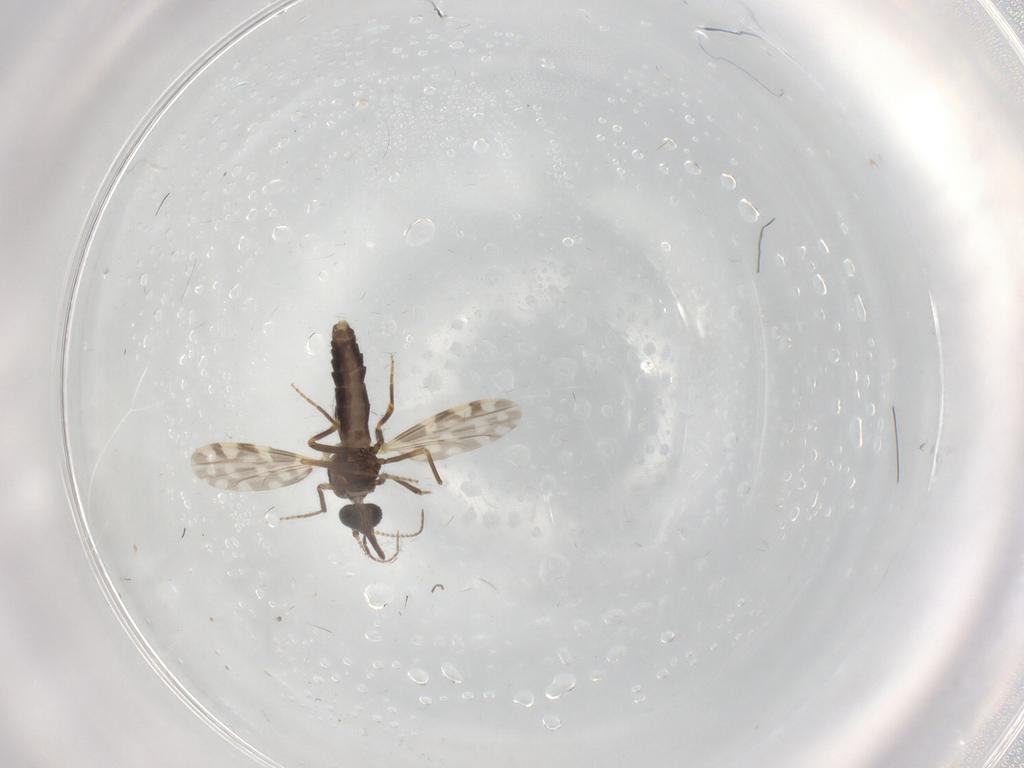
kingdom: Animalia
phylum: Arthropoda
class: Insecta
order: Diptera
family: Ceratopogonidae
